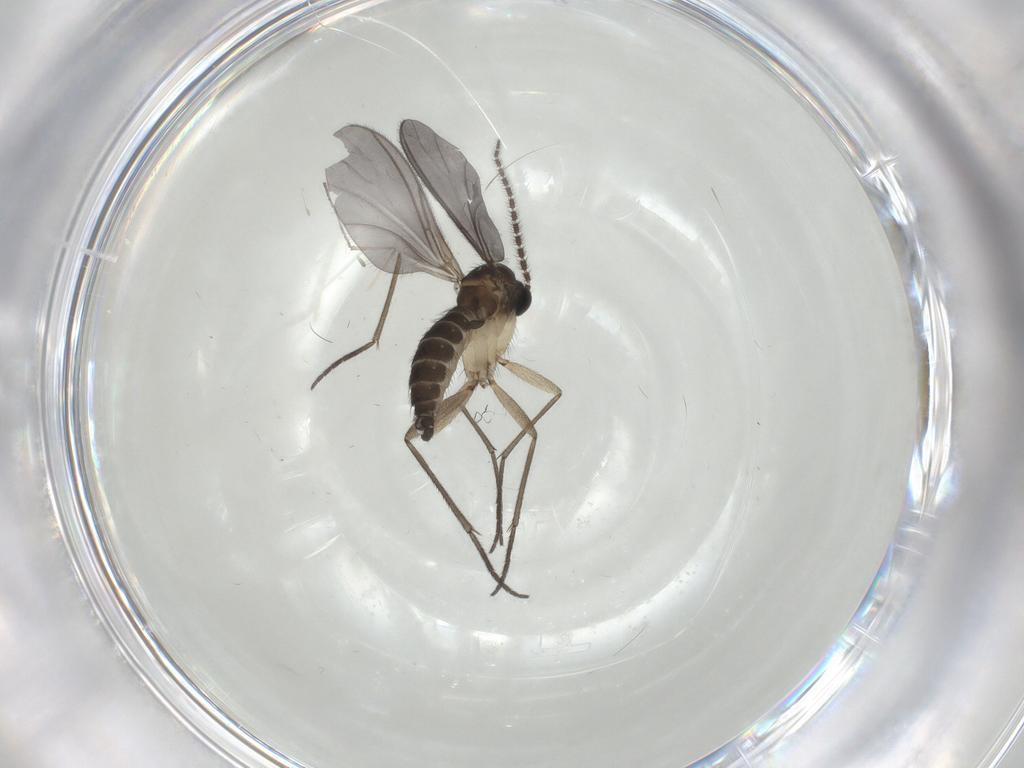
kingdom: Animalia
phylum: Arthropoda
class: Insecta
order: Diptera
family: Sciaridae
